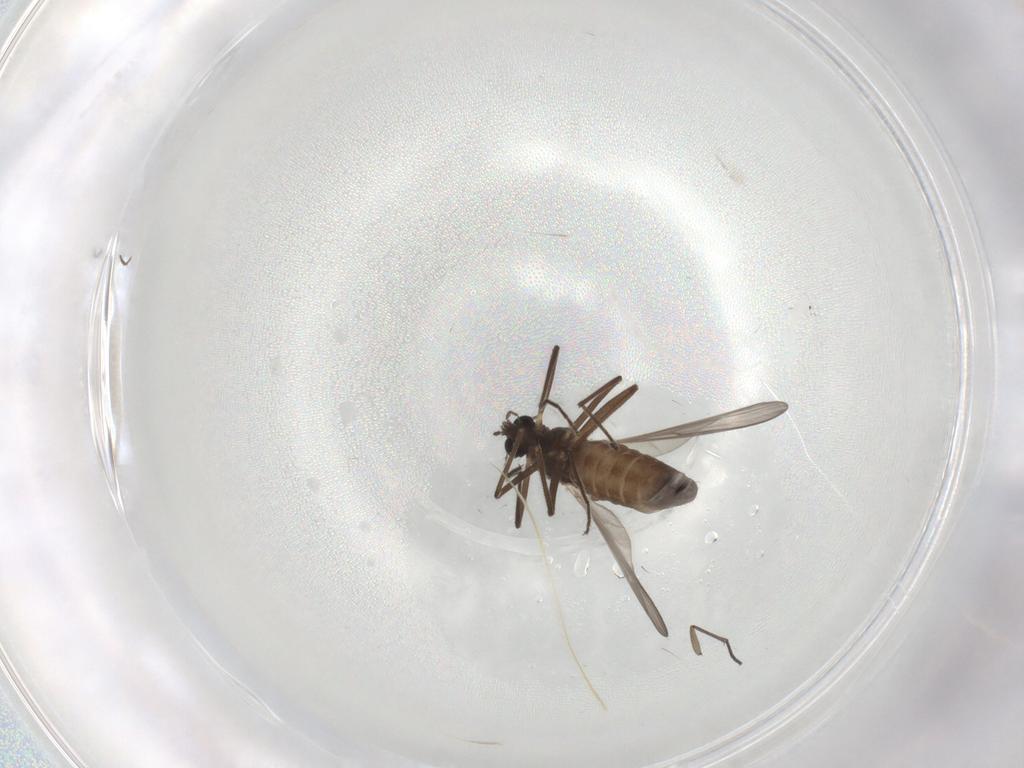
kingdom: Animalia
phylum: Arthropoda
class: Insecta
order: Diptera
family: Chironomidae
